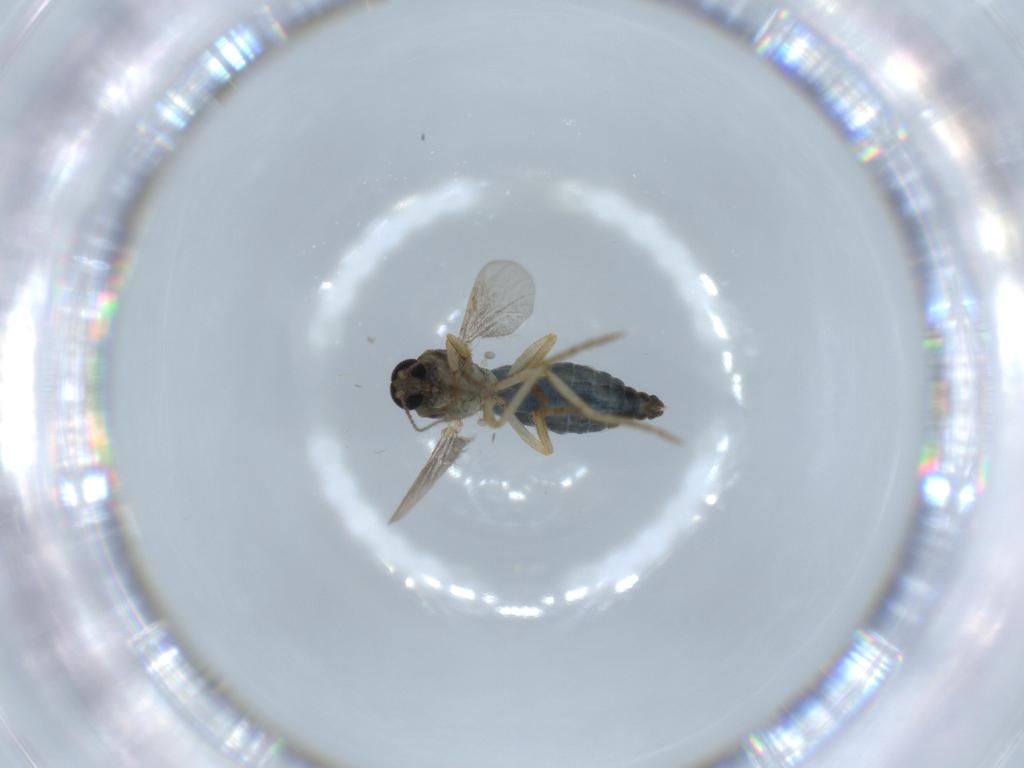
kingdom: Animalia
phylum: Arthropoda
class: Insecta
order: Diptera
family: Ceratopogonidae
